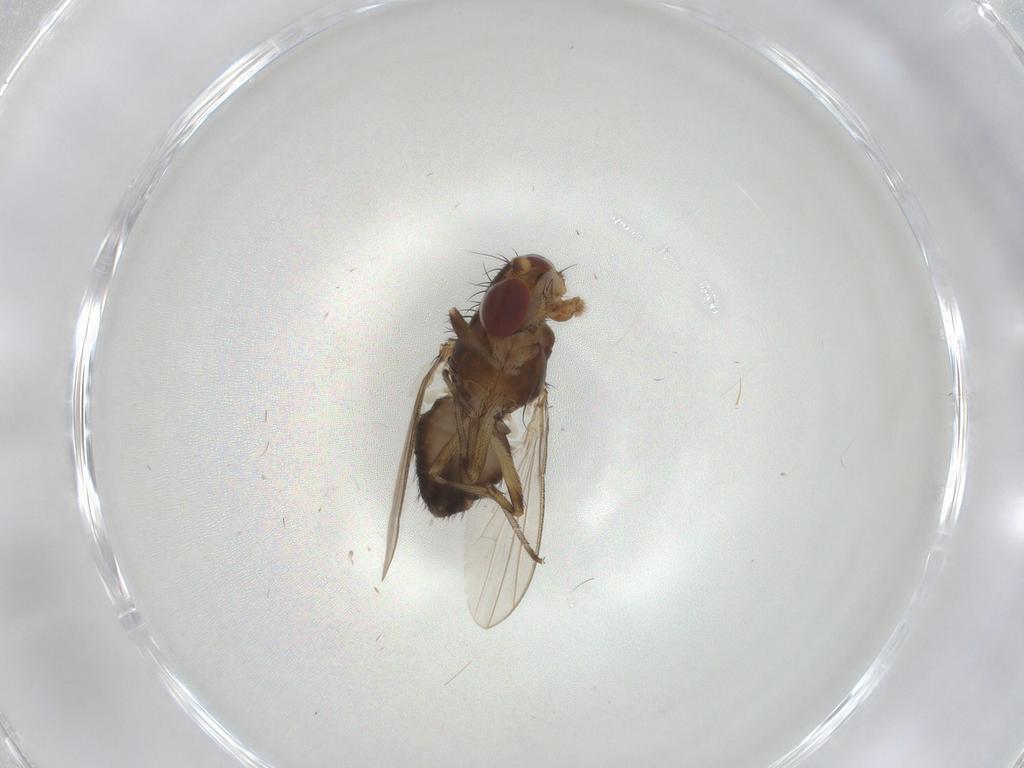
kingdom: Animalia
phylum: Arthropoda
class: Insecta
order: Diptera
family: Heleomyzidae
